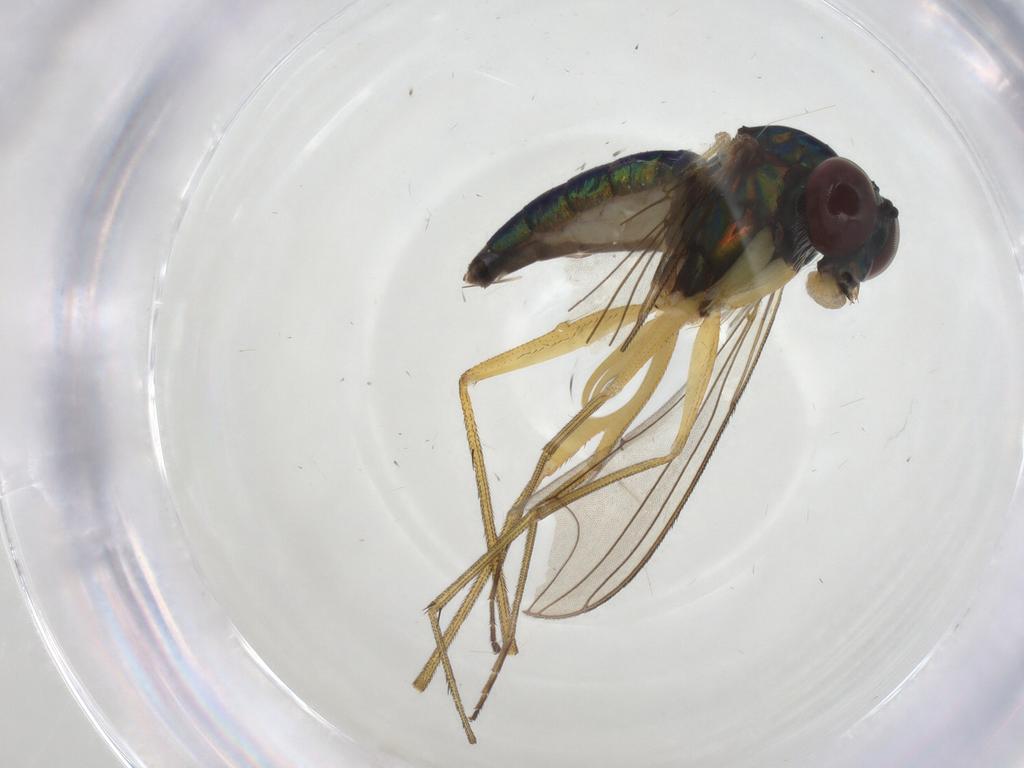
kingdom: Animalia
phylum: Arthropoda
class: Insecta
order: Diptera
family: Dolichopodidae
